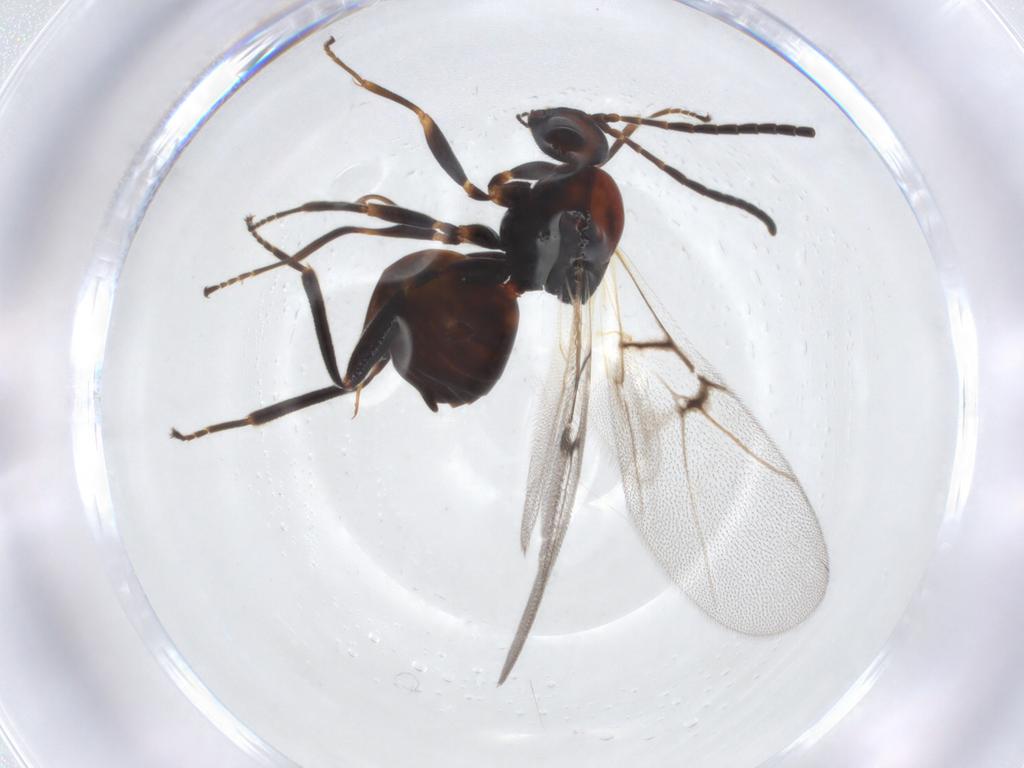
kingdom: Animalia
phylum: Arthropoda
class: Insecta
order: Hymenoptera
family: Cynipidae
